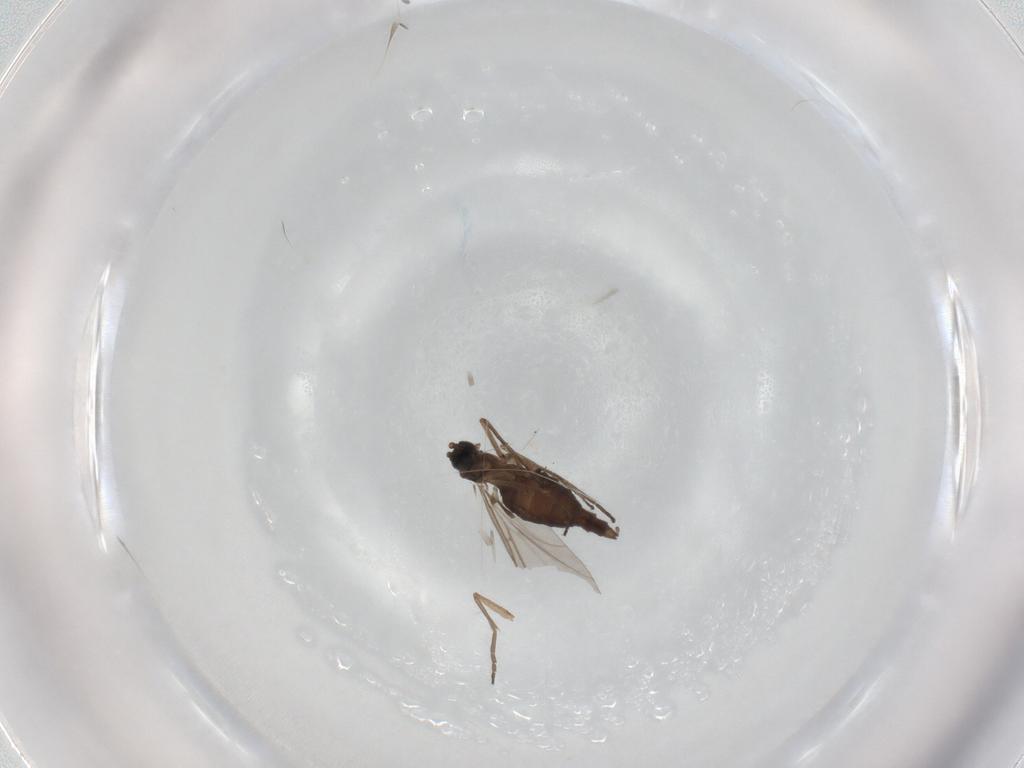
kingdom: Animalia
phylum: Arthropoda
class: Insecta
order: Diptera
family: Sciaridae
